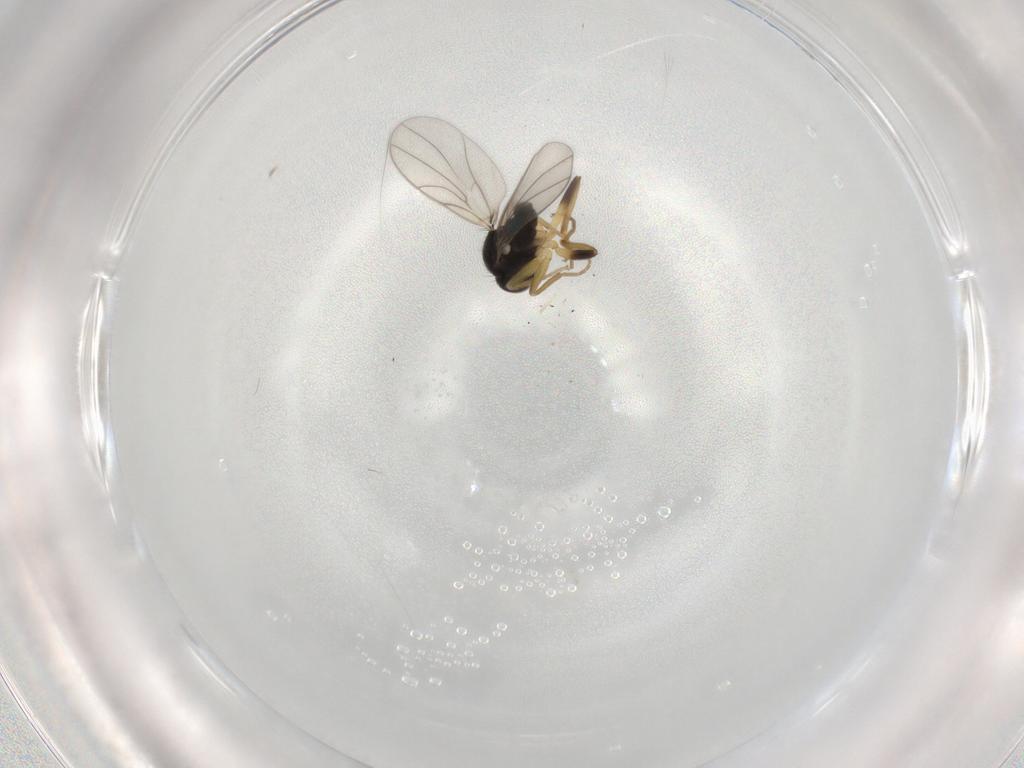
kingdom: Animalia
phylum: Arthropoda
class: Insecta
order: Diptera
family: Hybotidae
